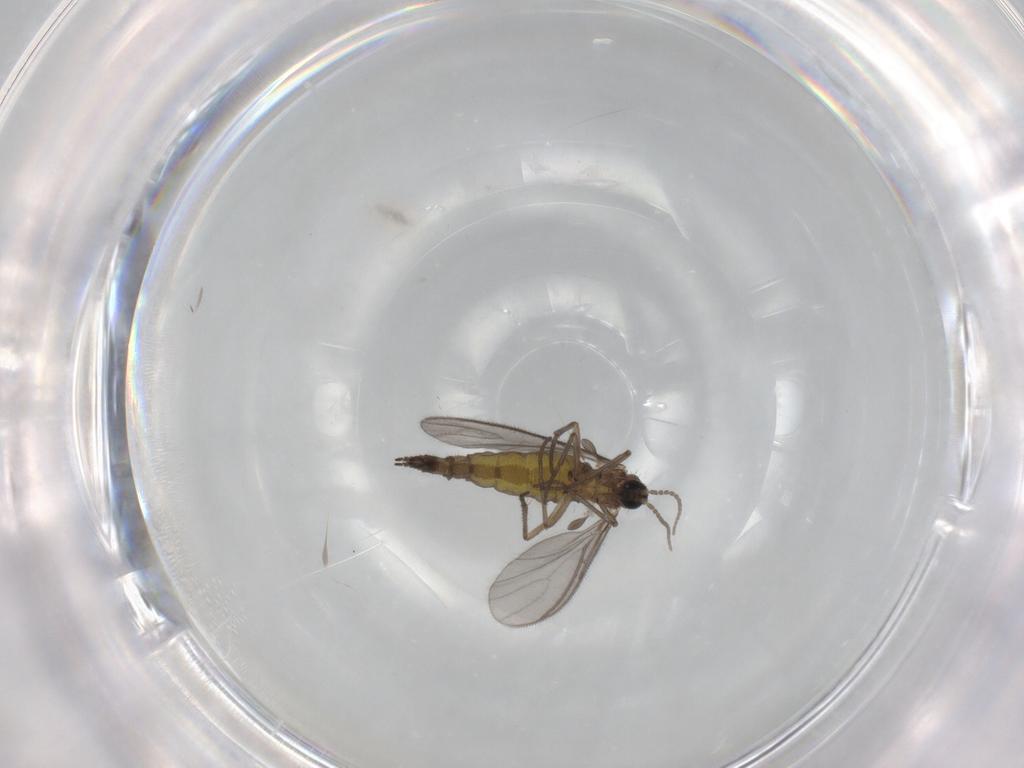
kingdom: Animalia
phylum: Arthropoda
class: Insecta
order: Diptera
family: Sciaridae
